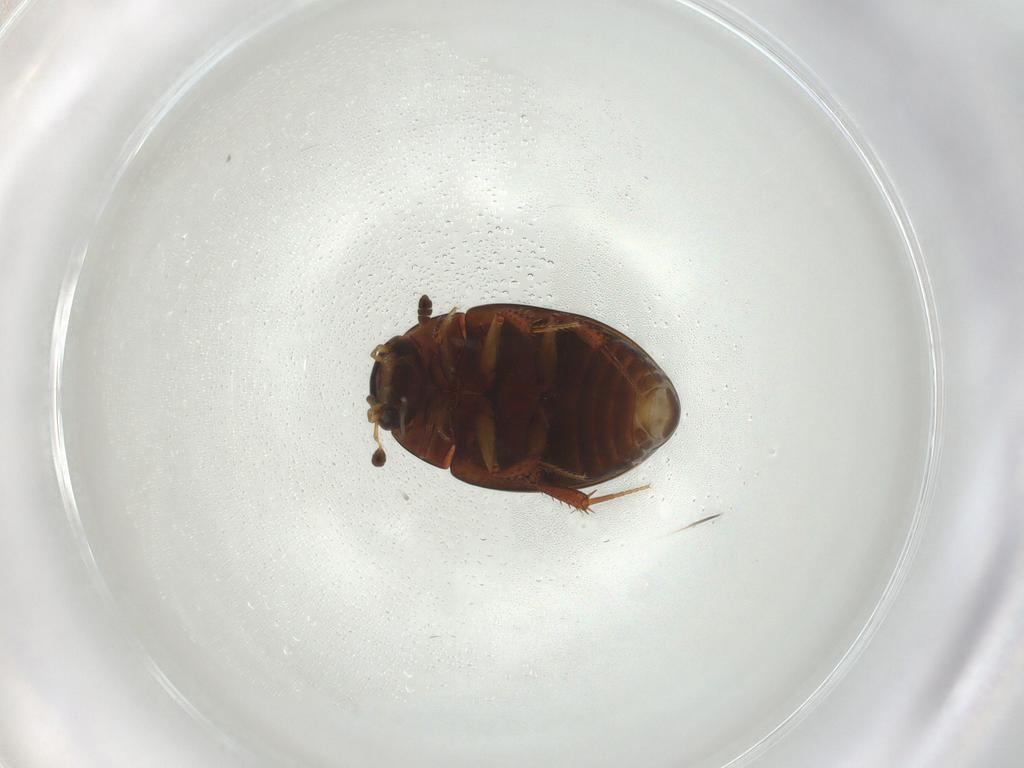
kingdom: Animalia
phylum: Arthropoda
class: Insecta
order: Coleoptera
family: Hydrophilidae
